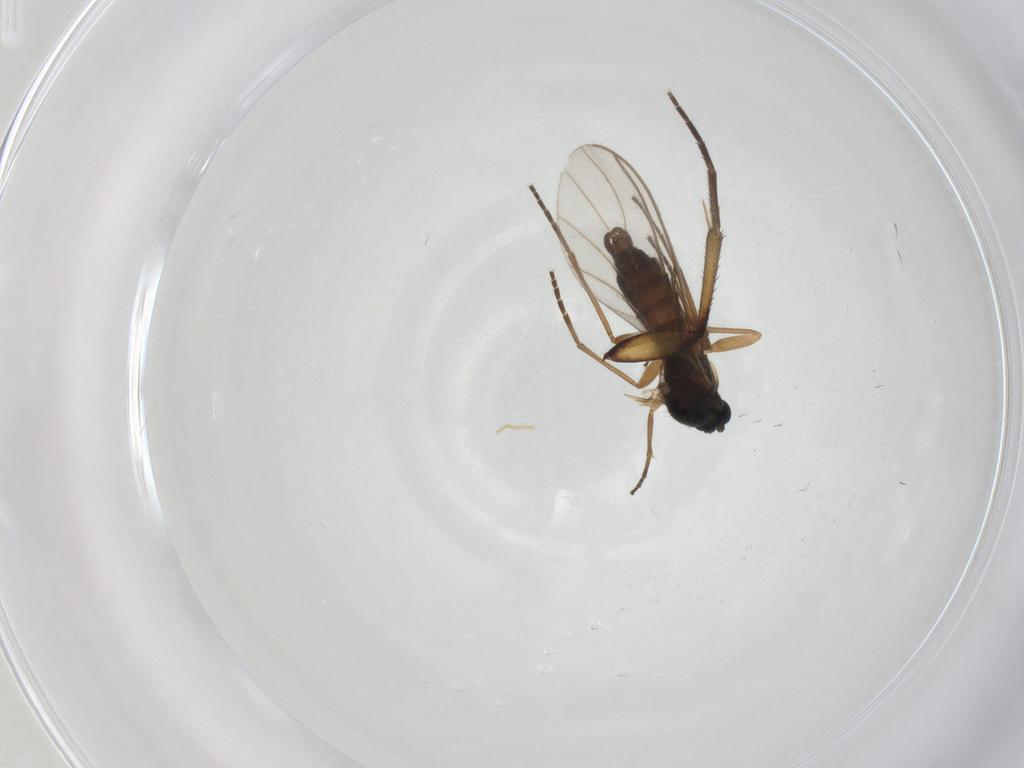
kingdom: Animalia
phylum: Arthropoda
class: Insecta
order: Diptera
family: Mycetophilidae
